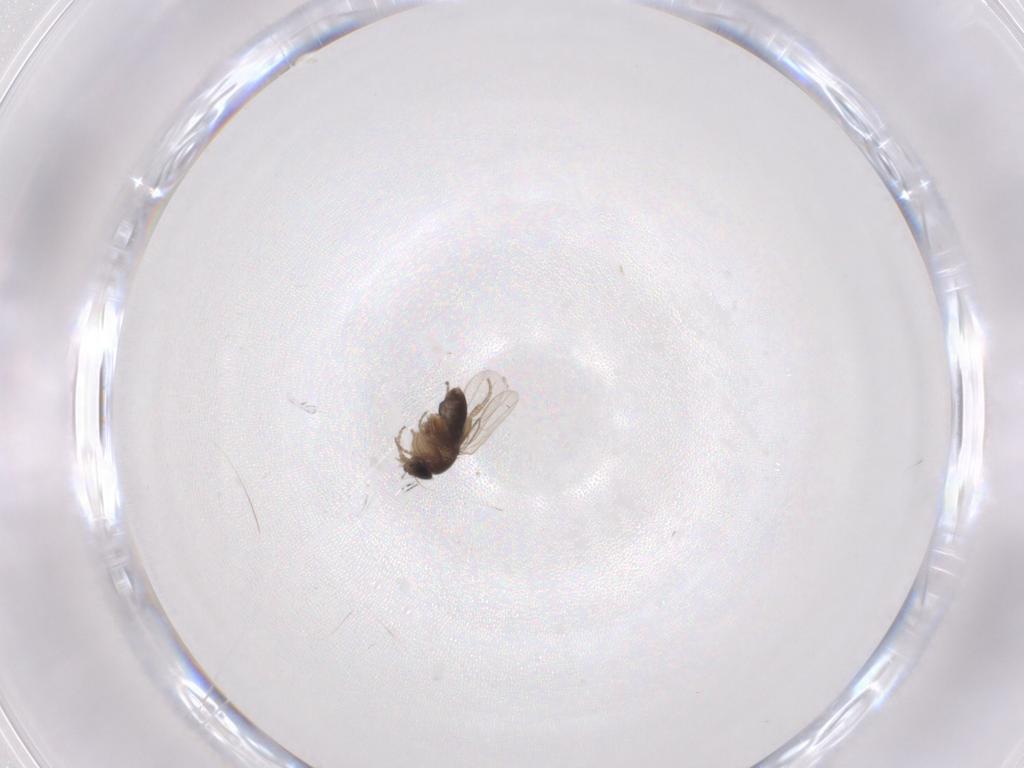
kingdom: Animalia
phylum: Arthropoda
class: Insecta
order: Diptera
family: Phoridae
